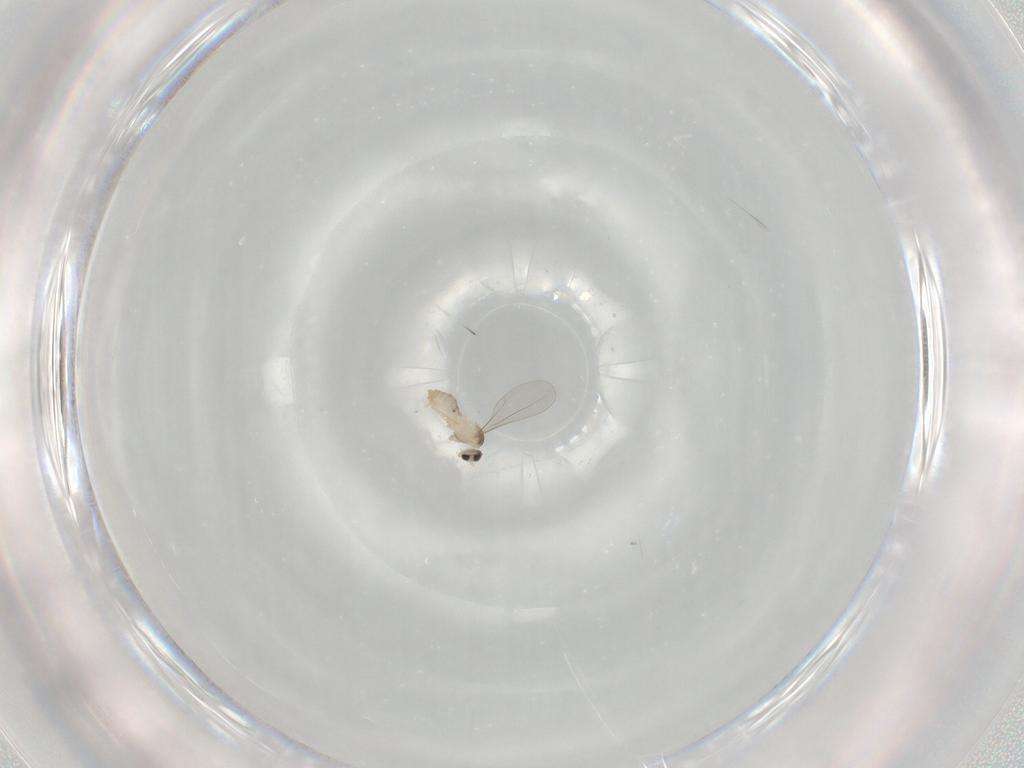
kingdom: Animalia
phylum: Arthropoda
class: Insecta
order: Diptera
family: Cecidomyiidae
